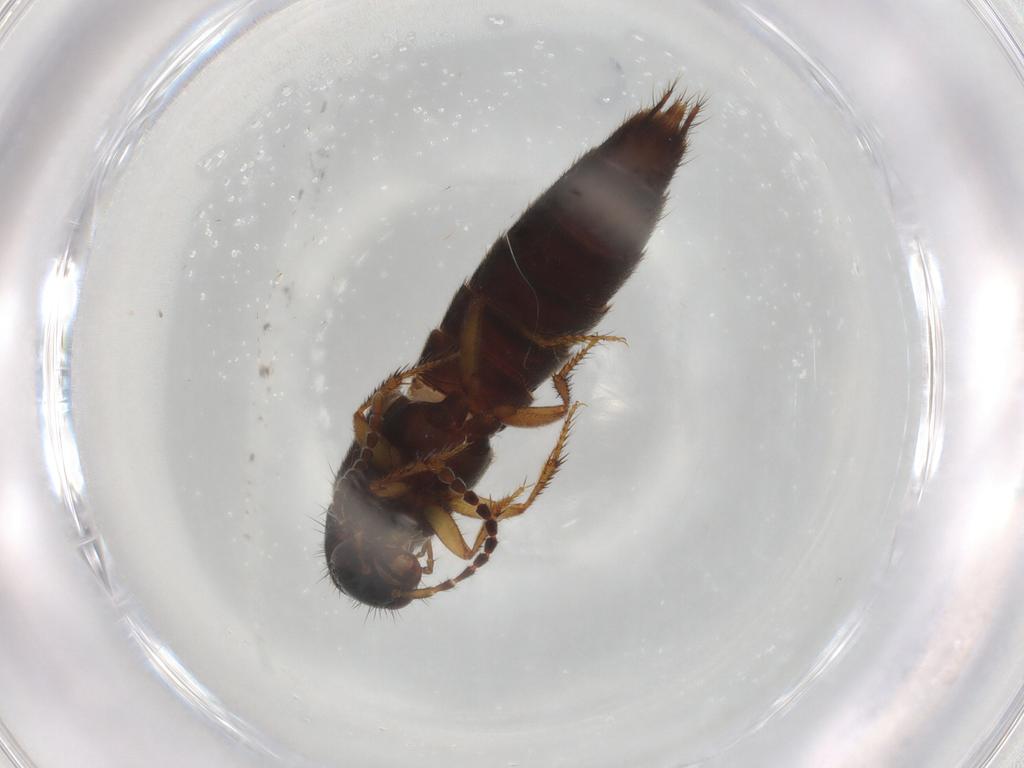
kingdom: Animalia
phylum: Arthropoda
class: Insecta
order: Coleoptera
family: Staphylinidae
